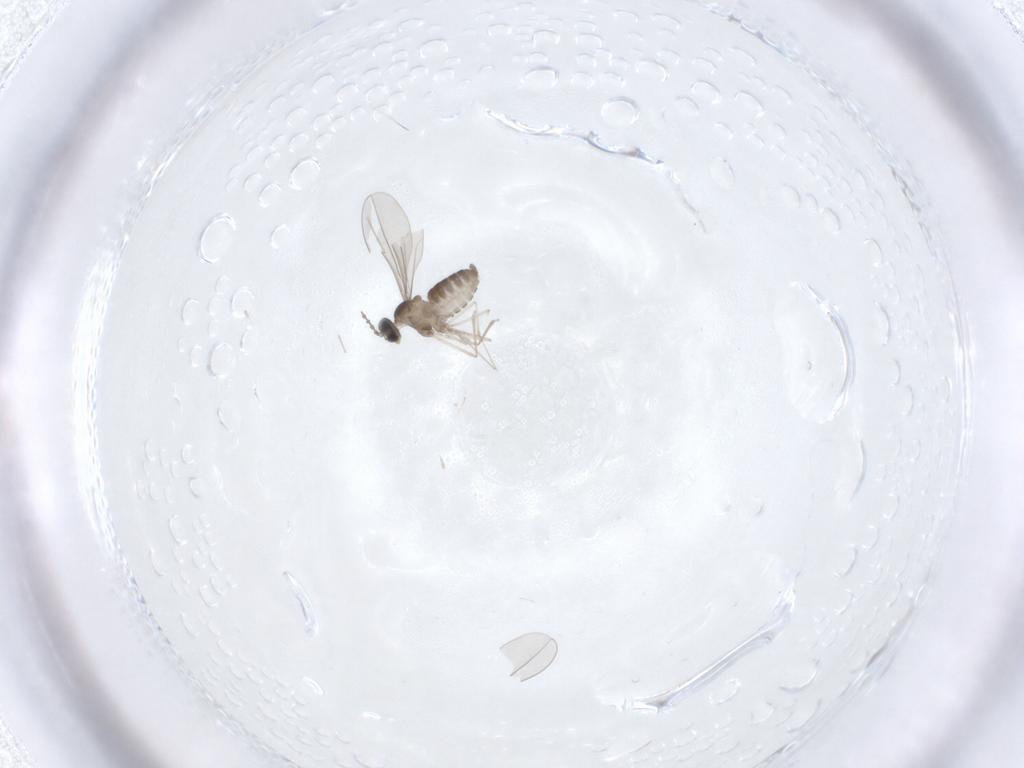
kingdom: Animalia
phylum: Arthropoda
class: Insecta
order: Diptera
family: Cecidomyiidae
